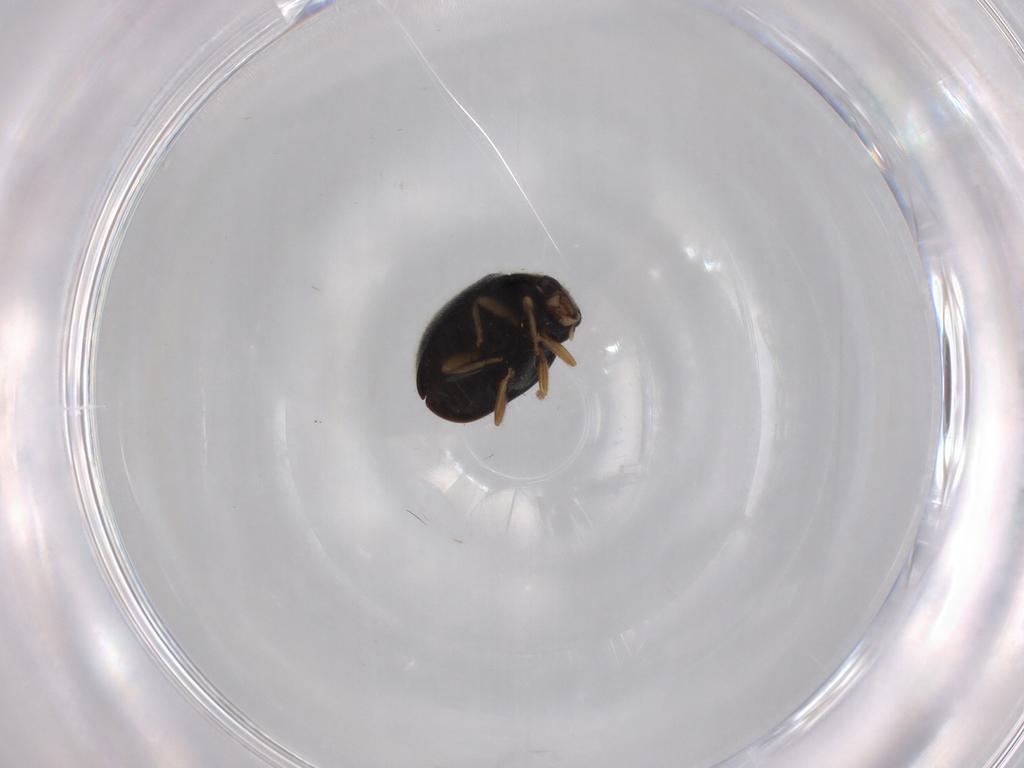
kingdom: Animalia
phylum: Arthropoda
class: Insecta
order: Coleoptera
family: Coccinellidae
